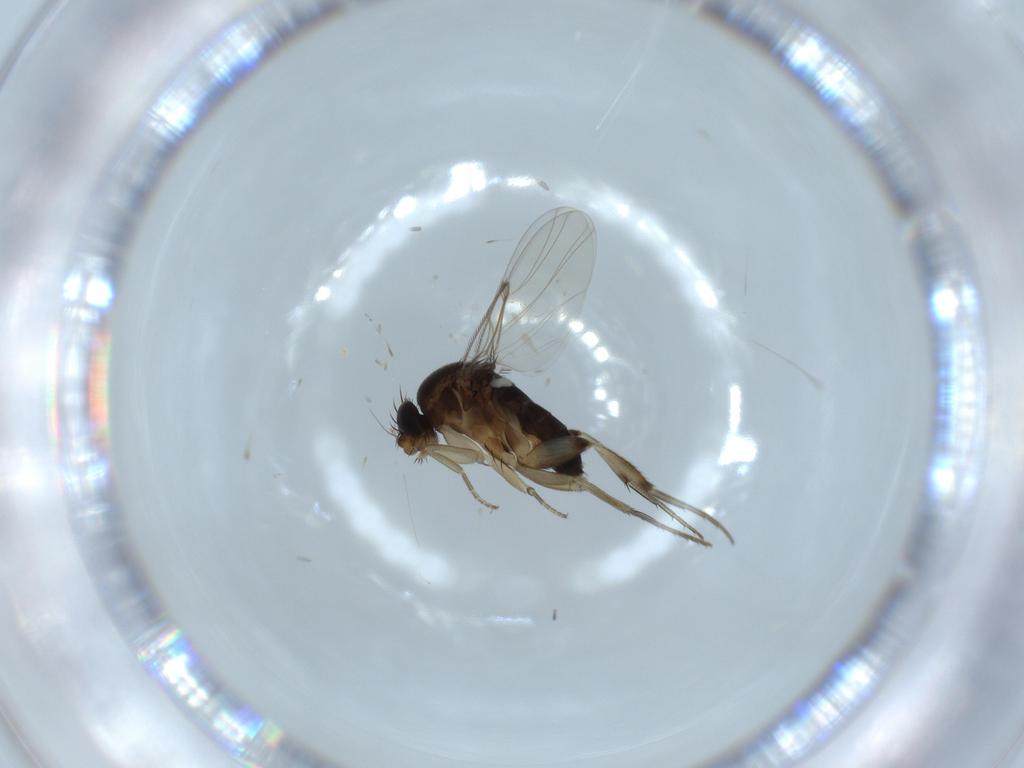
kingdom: Animalia
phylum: Arthropoda
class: Insecta
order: Diptera
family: Phoridae
